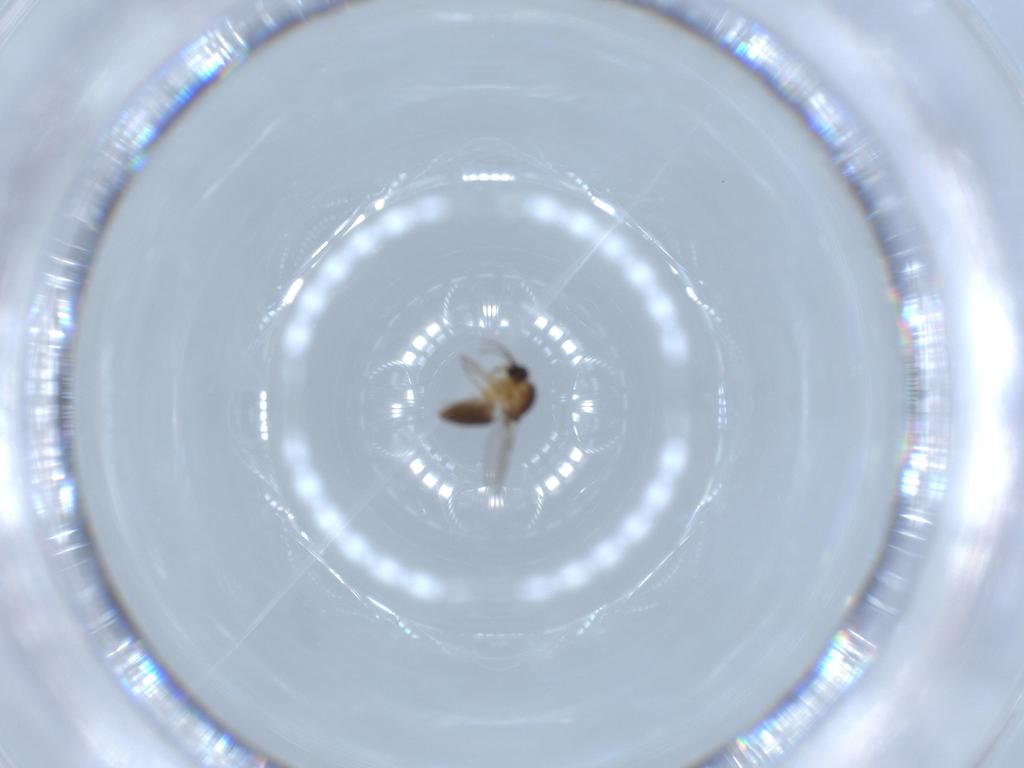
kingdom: Animalia
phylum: Arthropoda
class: Insecta
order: Diptera
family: Ceratopogonidae
